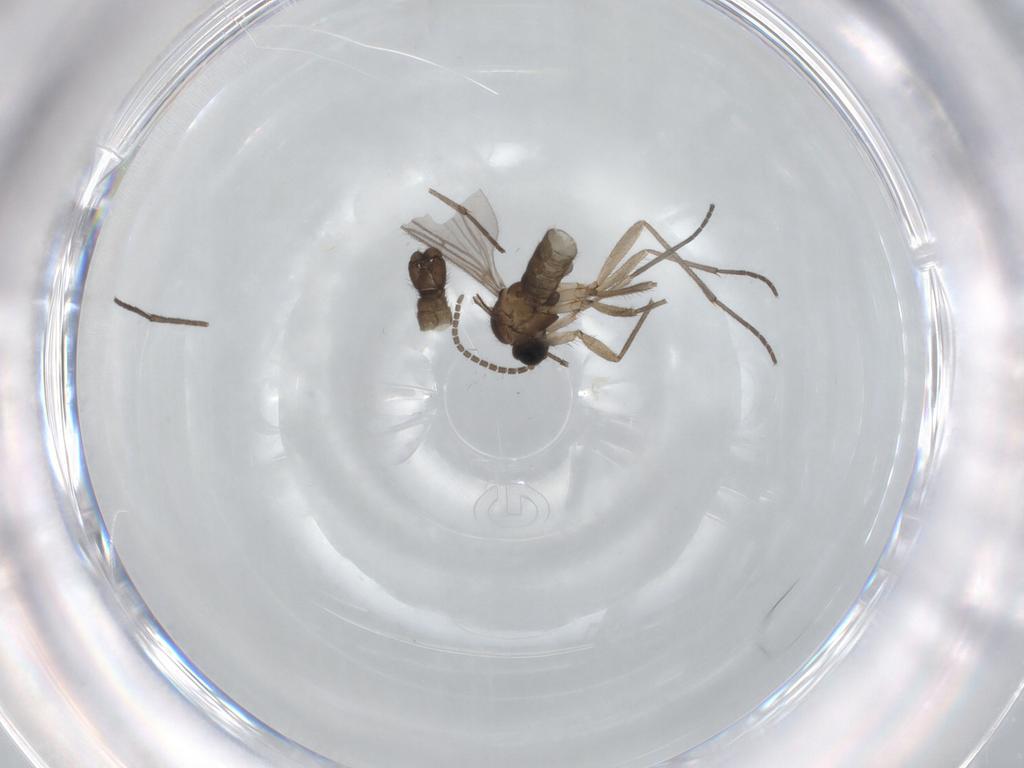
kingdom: Animalia
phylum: Arthropoda
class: Insecta
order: Diptera
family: Sciaridae
